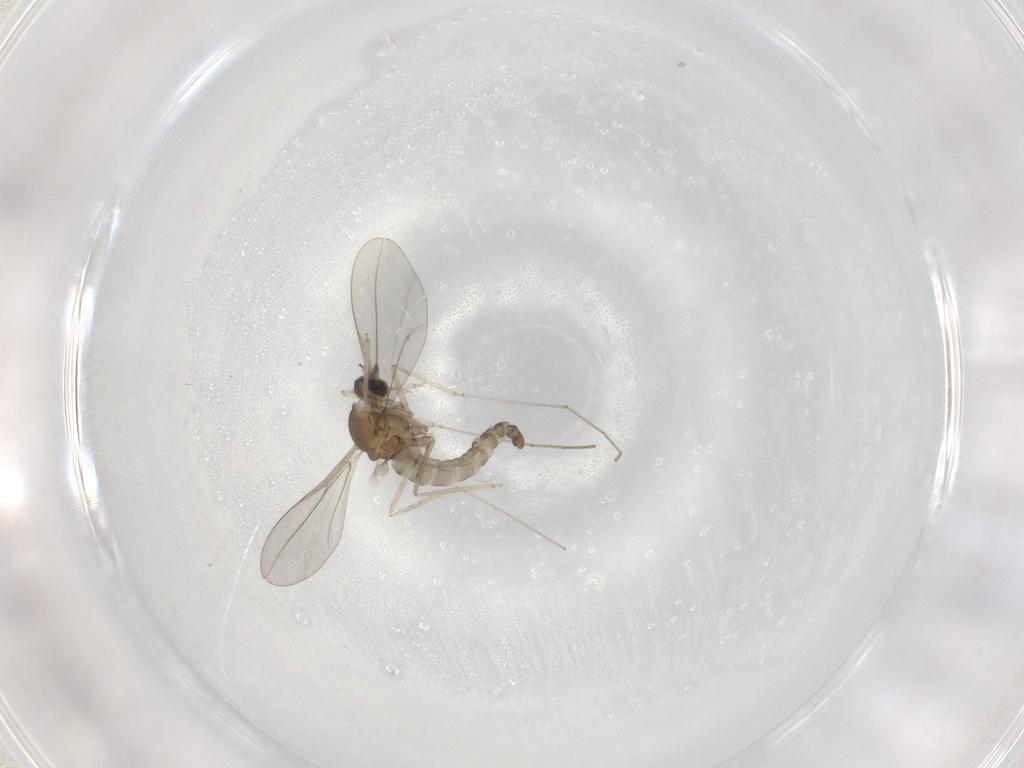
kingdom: Animalia
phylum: Arthropoda
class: Insecta
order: Diptera
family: Cecidomyiidae
